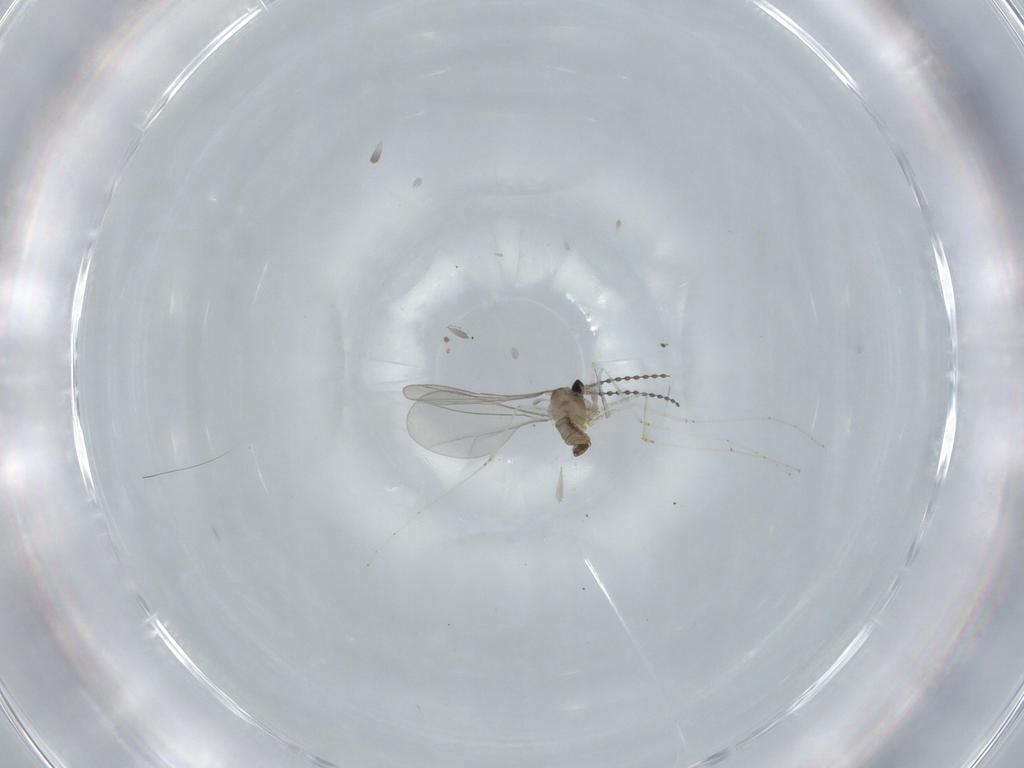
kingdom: Animalia
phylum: Arthropoda
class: Insecta
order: Diptera
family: Cecidomyiidae
